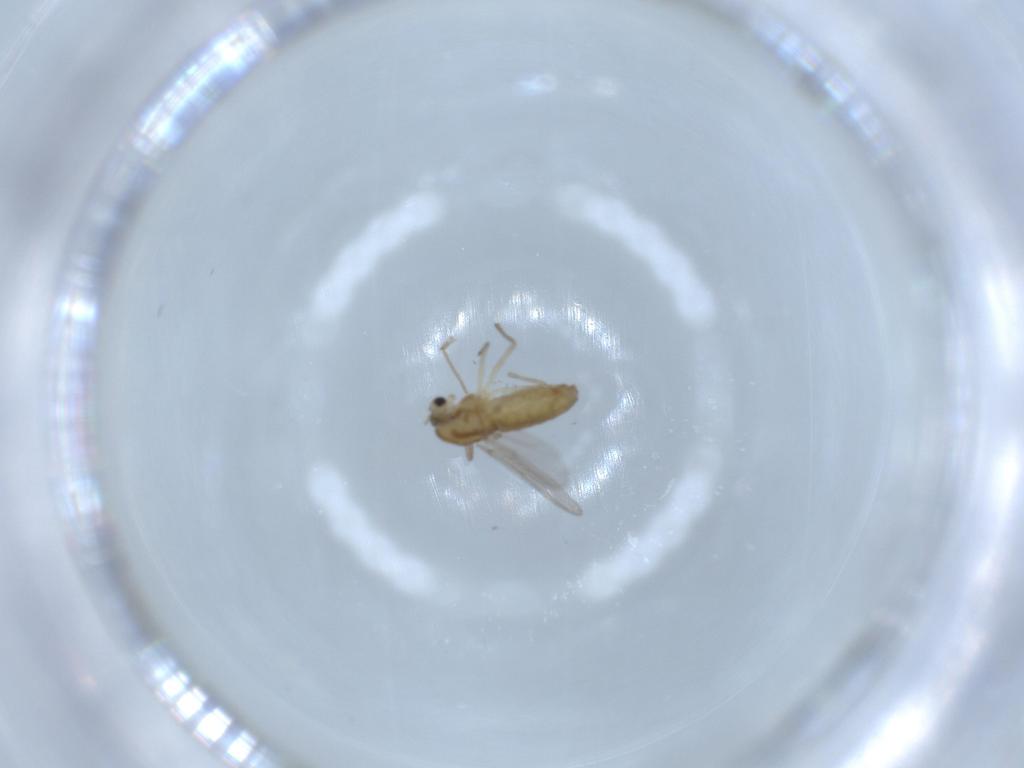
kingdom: Animalia
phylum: Arthropoda
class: Insecta
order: Diptera
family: Chironomidae
